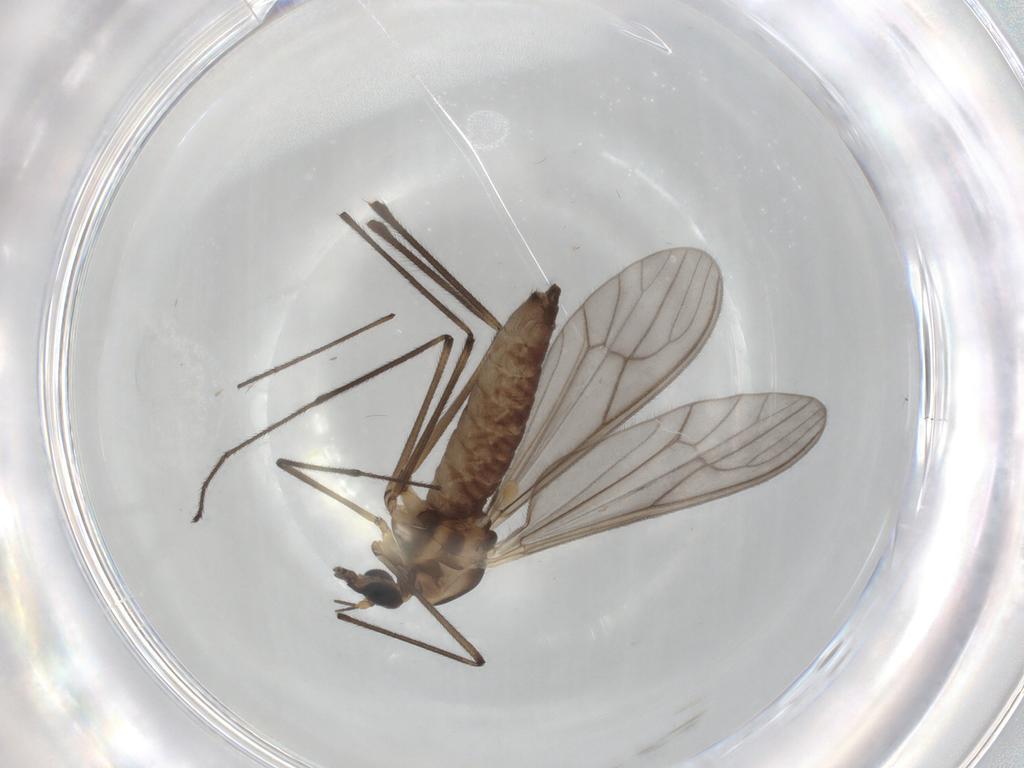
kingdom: Animalia
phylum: Arthropoda
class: Insecta
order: Diptera
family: Chironomidae
